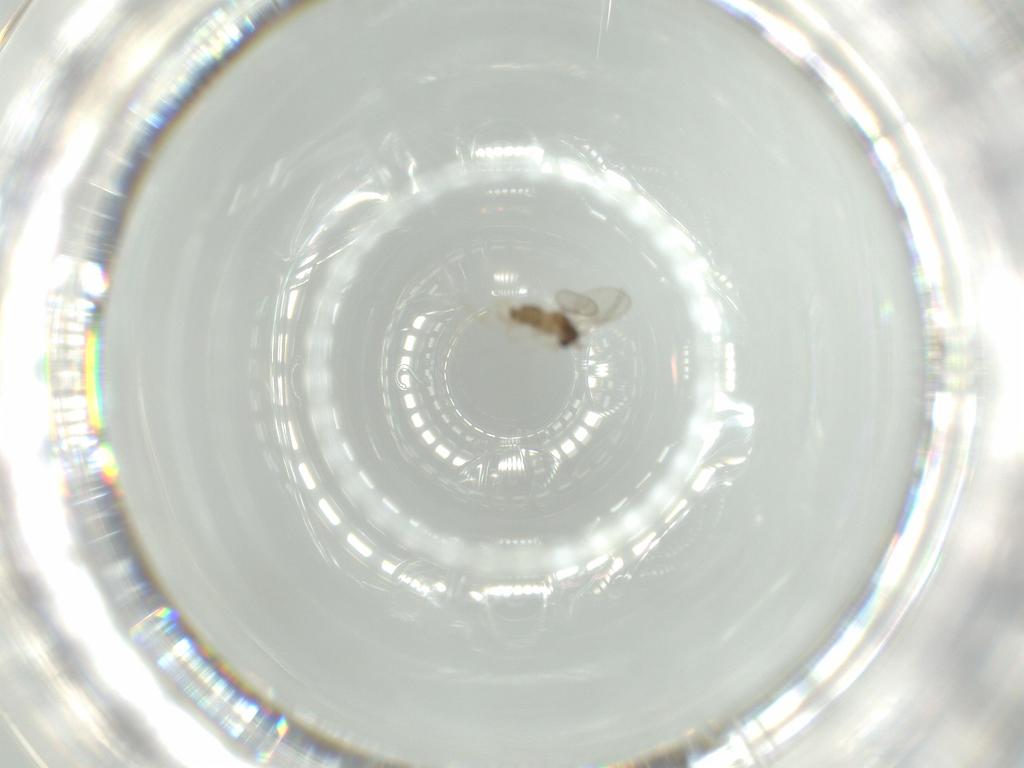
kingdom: Animalia
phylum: Arthropoda
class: Insecta
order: Diptera
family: Cecidomyiidae
